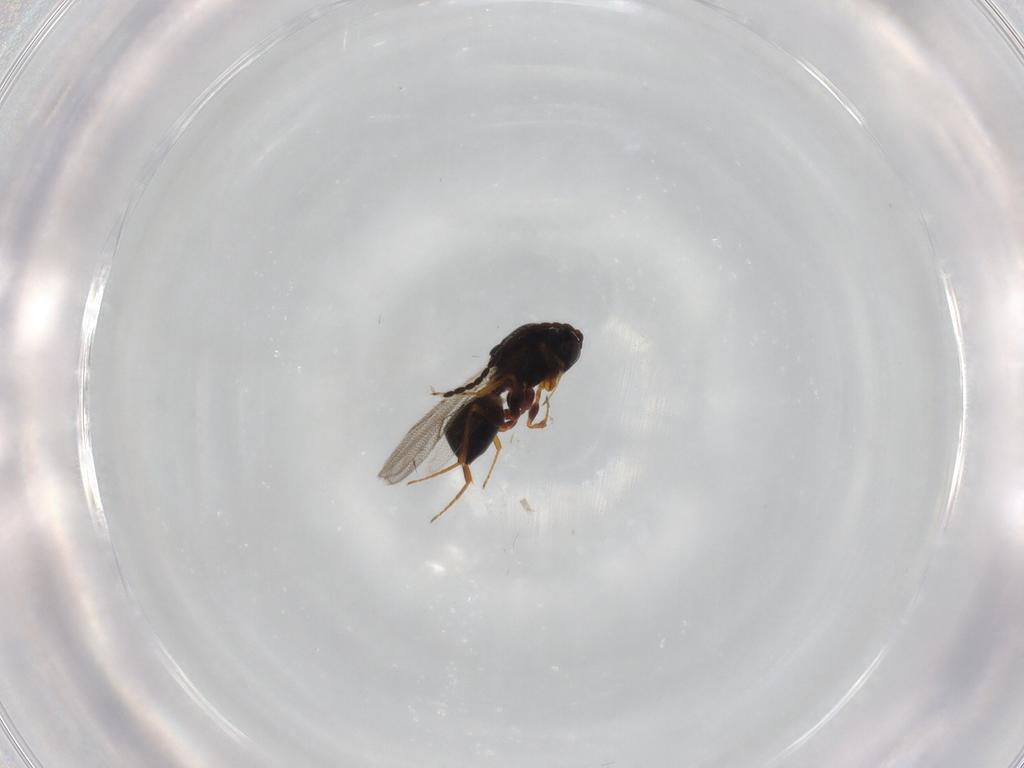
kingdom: Animalia
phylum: Arthropoda
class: Insecta
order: Hymenoptera
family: Figitidae
